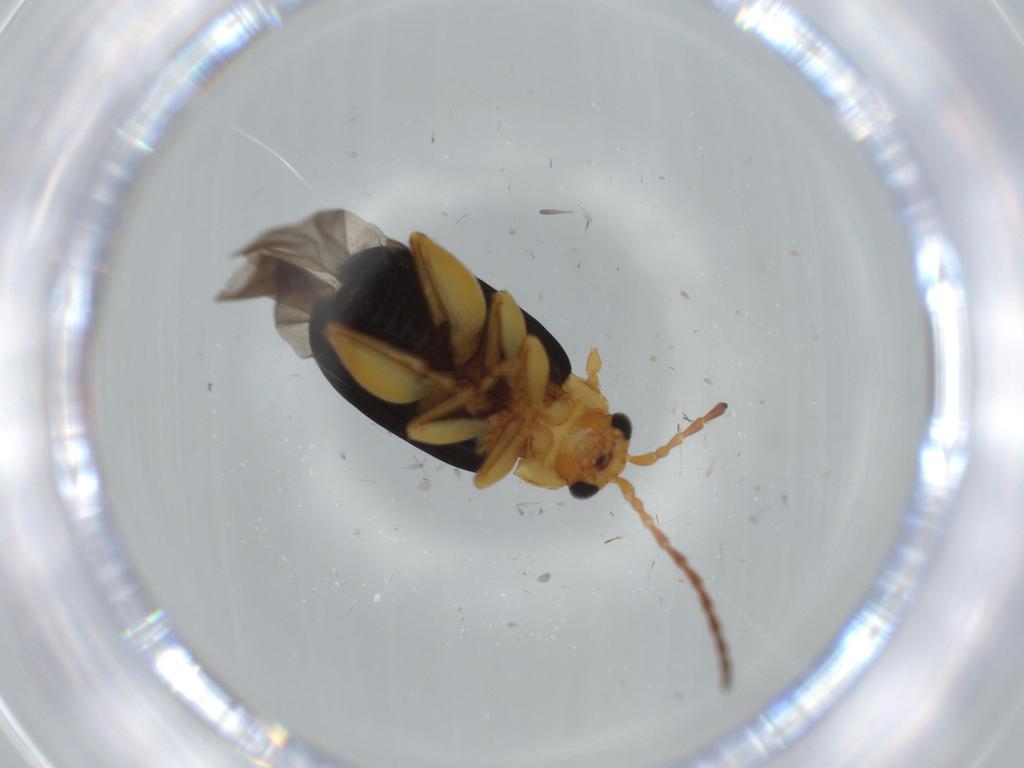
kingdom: Animalia
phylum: Arthropoda
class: Insecta
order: Coleoptera
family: Chrysomelidae
